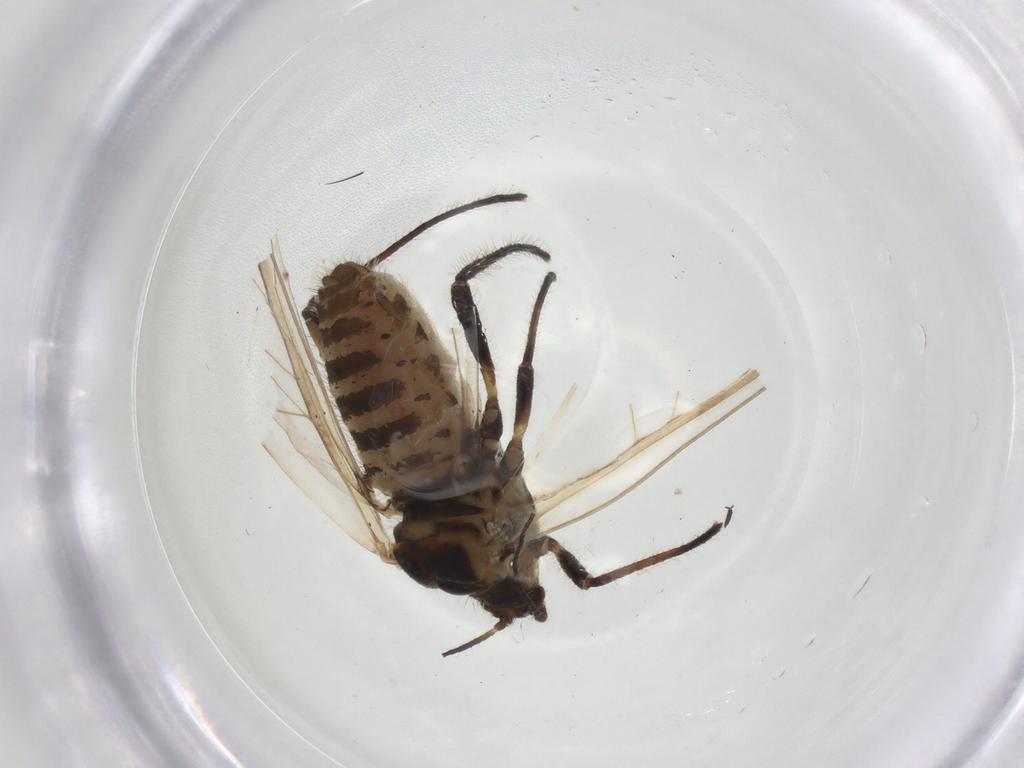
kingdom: Animalia
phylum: Arthropoda
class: Insecta
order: Hemiptera
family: Aphididae
